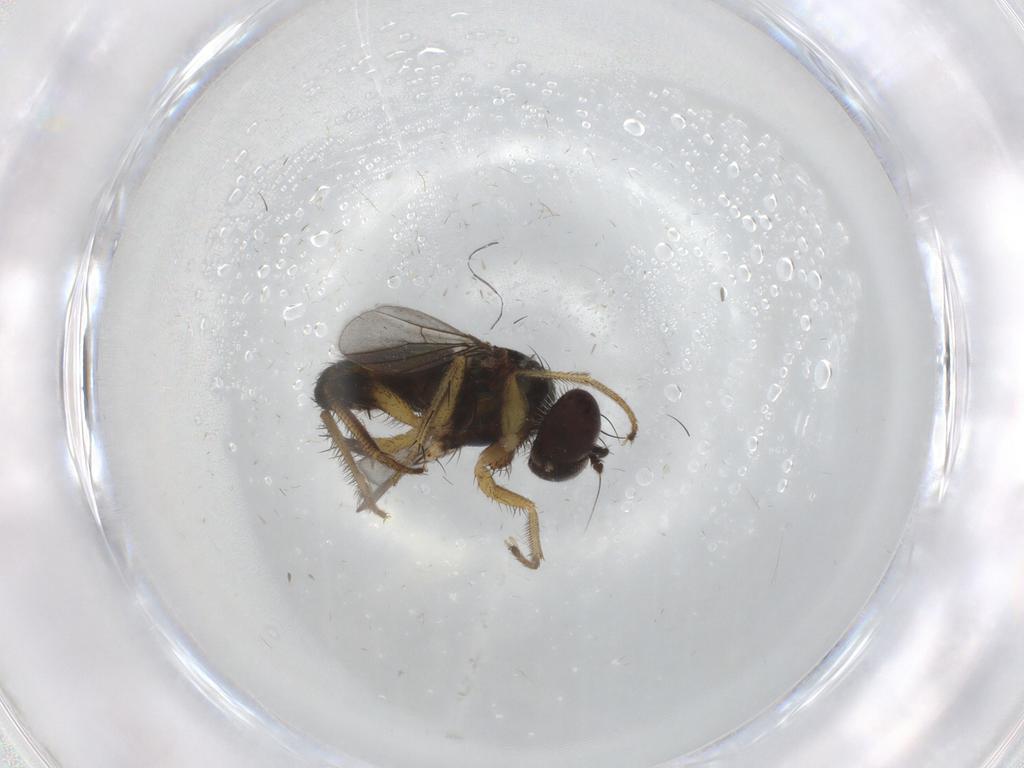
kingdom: Animalia
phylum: Arthropoda
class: Insecta
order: Diptera
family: Dolichopodidae
